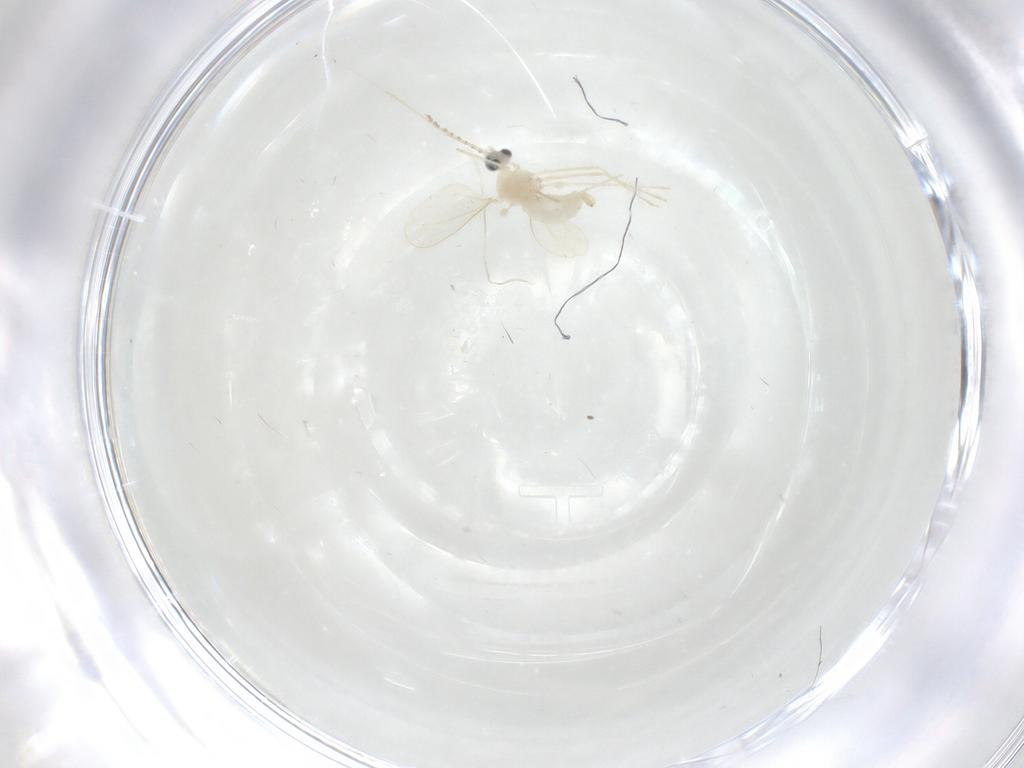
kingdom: Animalia
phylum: Arthropoda
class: Insecta
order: Diptera
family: Cecidomyiidae
